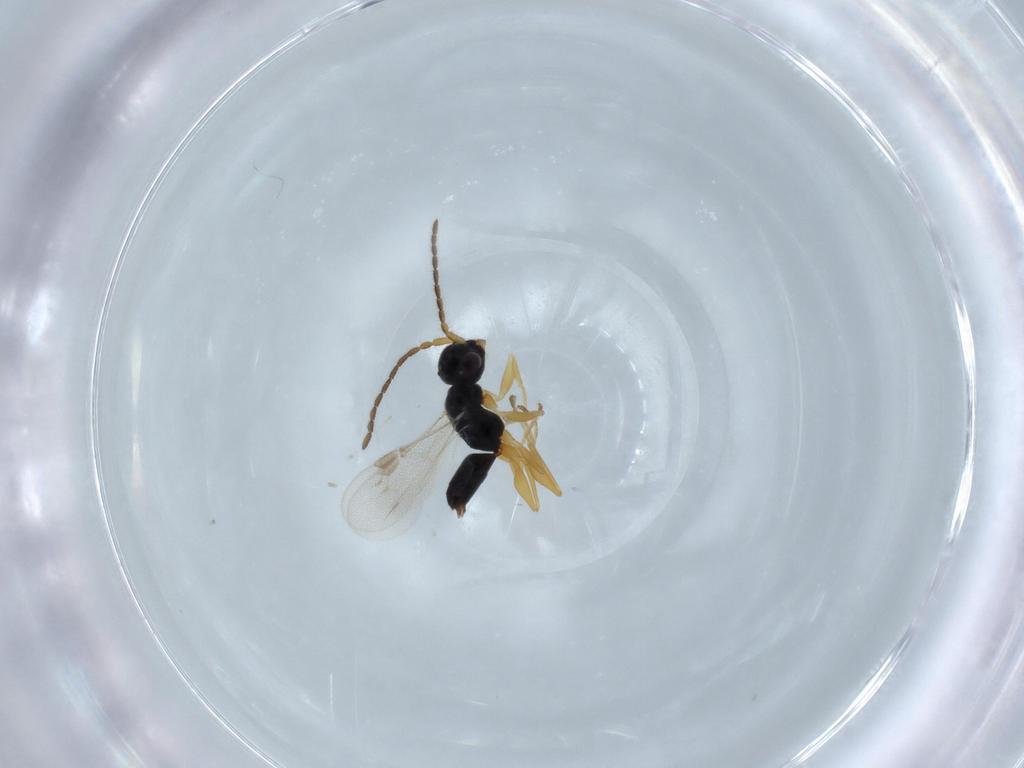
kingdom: Animalia
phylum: Arthropoda
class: Insecta
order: Hymenoptera
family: Dryinidae
